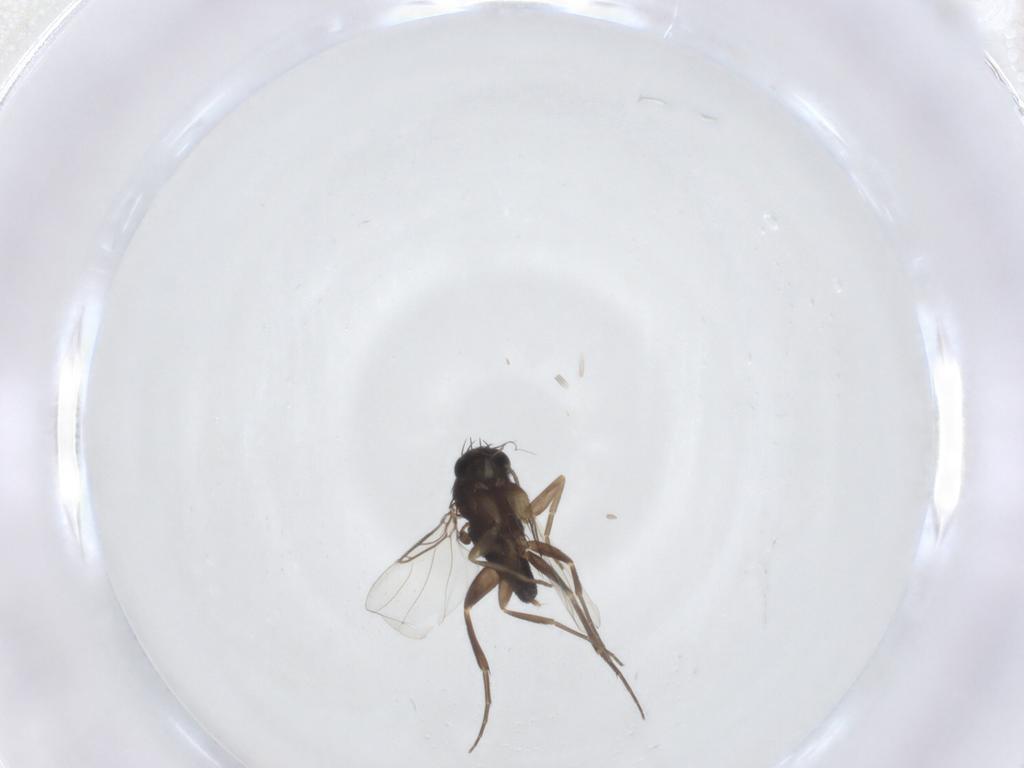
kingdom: Animalia
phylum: Arthropoda
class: Insecta
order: Diptera
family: Phoridae
